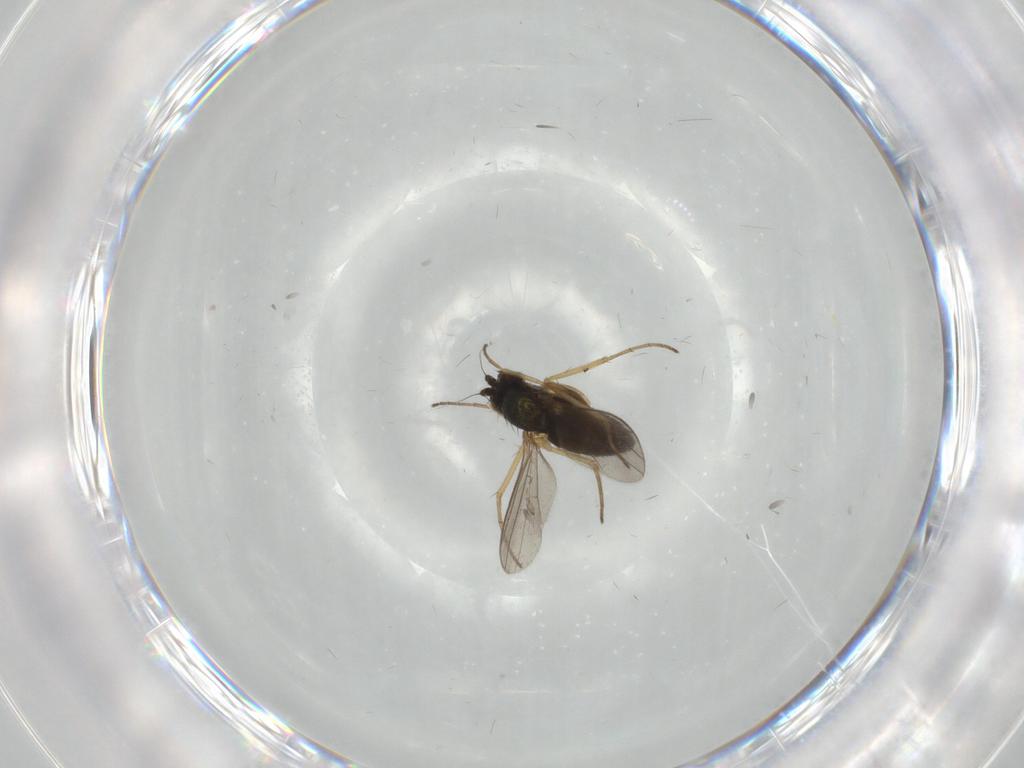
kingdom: Animalia
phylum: Arthropoda
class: Insecta
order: Diptera
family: Dolichopodidae
